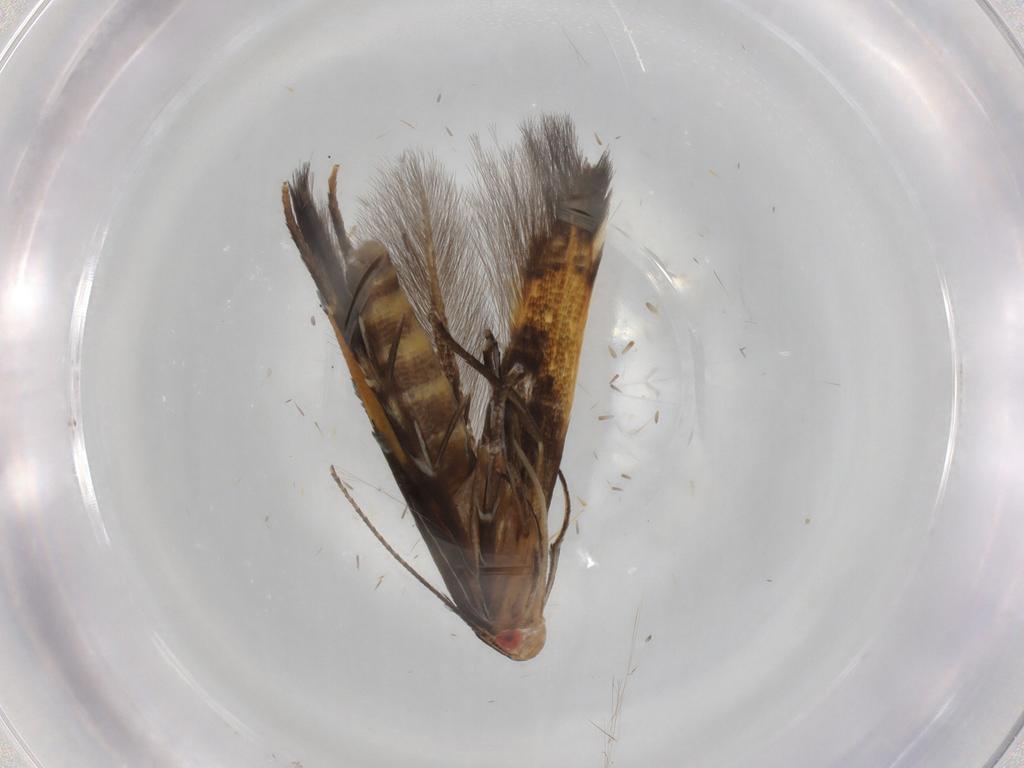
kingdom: Animalia
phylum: Arthropoda
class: Insecta
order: Lepidoptera
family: Cosmopterigidae
